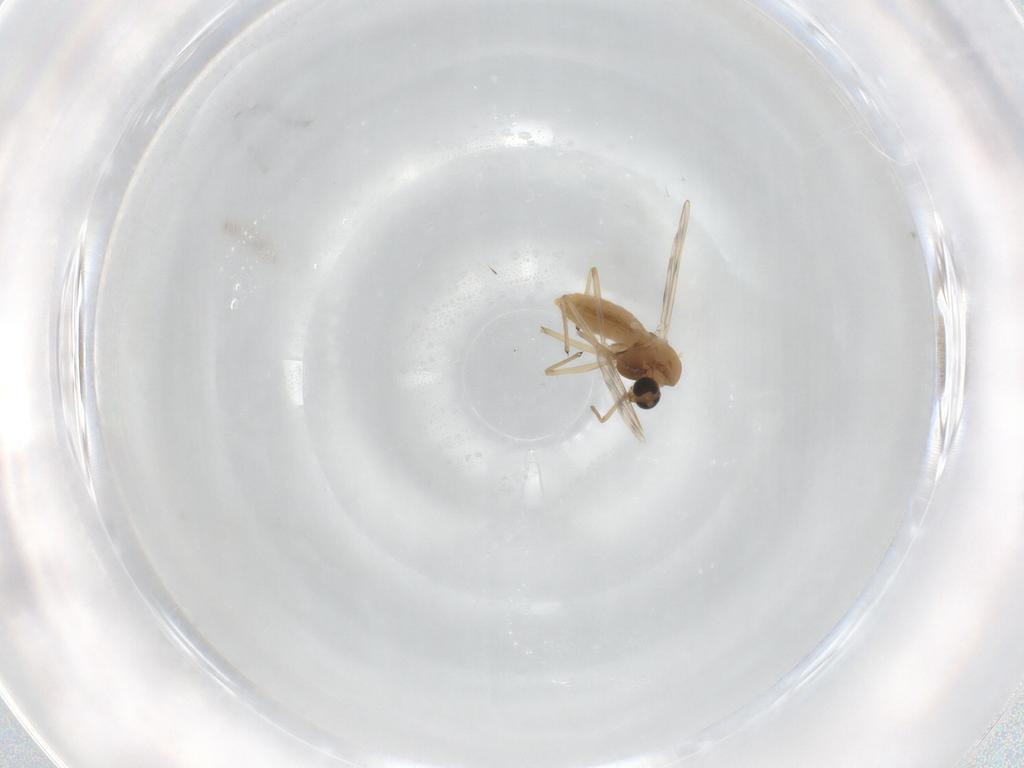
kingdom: Animalia
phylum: Arthropoda
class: Insecta
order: Diptera
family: Chironomidae
